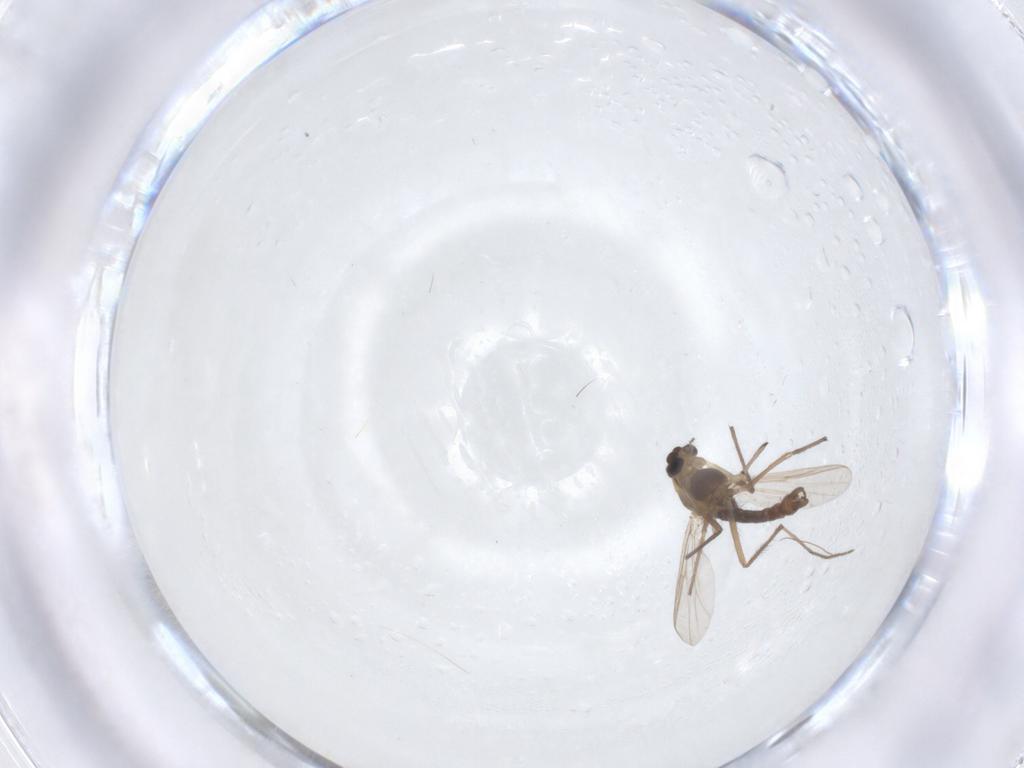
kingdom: Animalia
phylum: Arthropoda
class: Insecta
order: Diptera
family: Chironomidae
